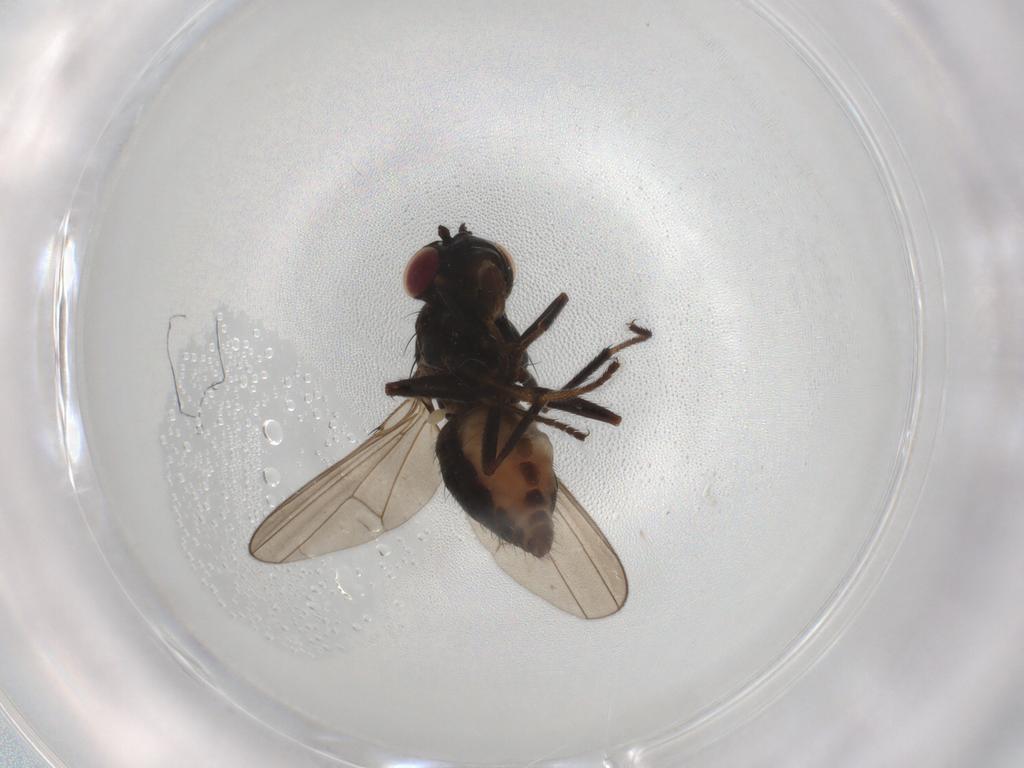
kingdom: Animalia
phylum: Arthropoda
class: Insecta
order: Diptera
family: Ephydridae
